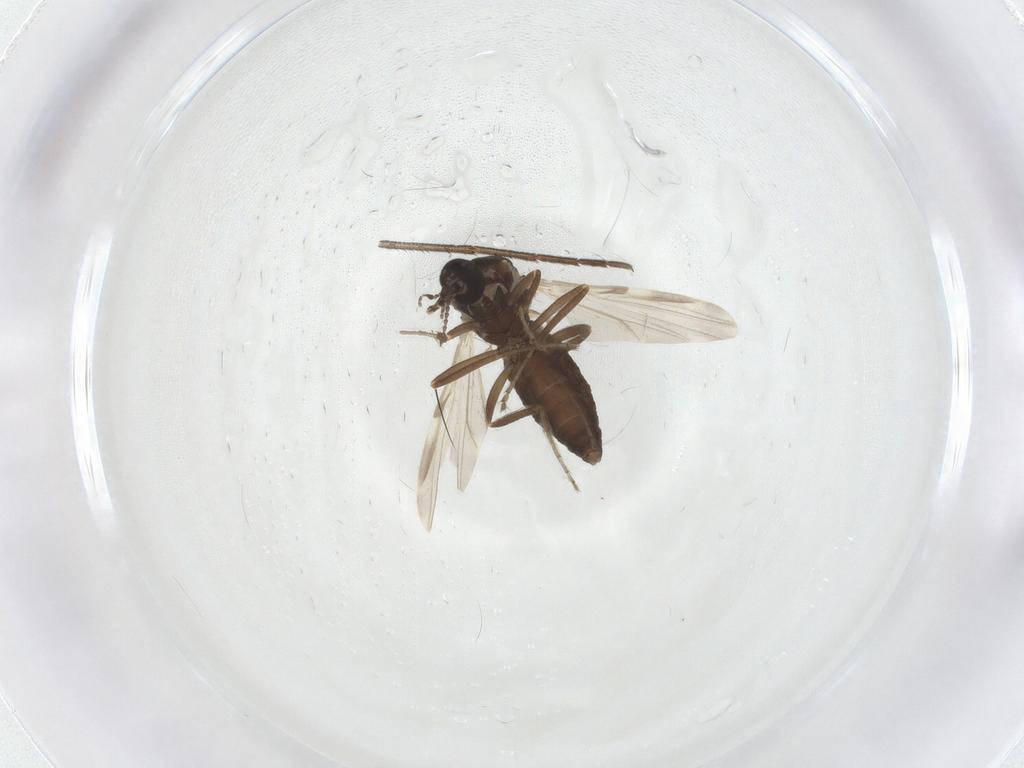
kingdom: Animalia
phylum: Arthropoda
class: Insecta
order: Diptera
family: Ceratopogonidae
